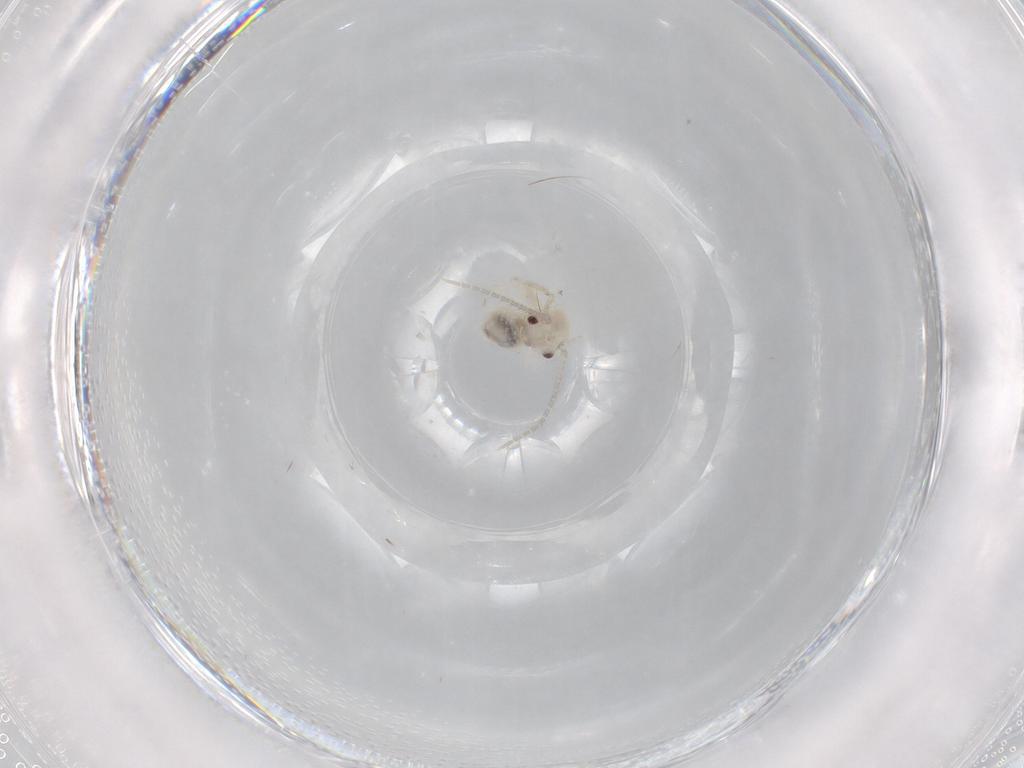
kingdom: Animalia
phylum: Arthropoda
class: Insecta
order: Psocodea
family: Amphipsocidae
